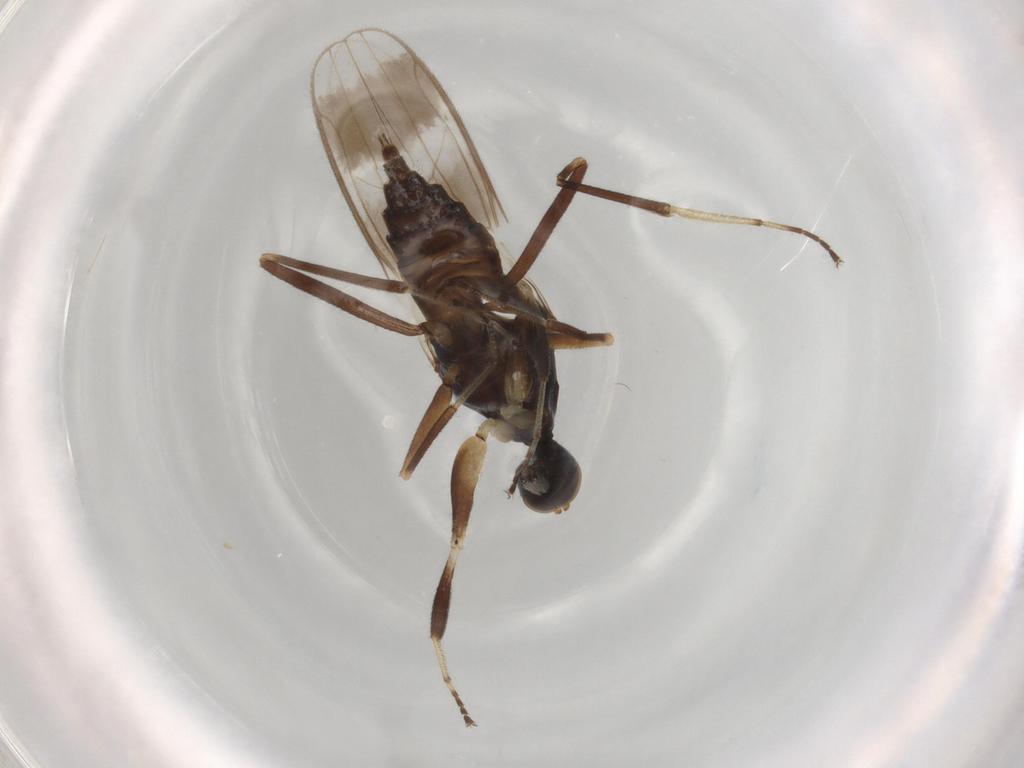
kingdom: Animalia
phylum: Arthropoda
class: Insecta
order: Diptera
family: Hybotidae
